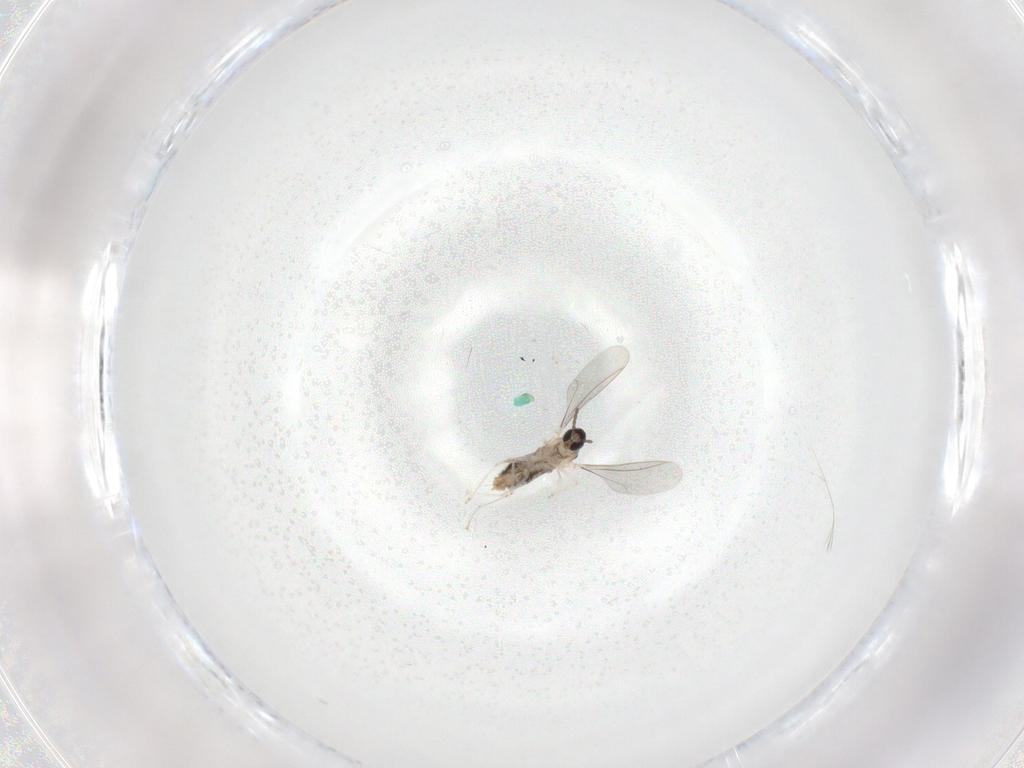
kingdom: Animalia
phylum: Arthropoda
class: Insecta
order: Diptera
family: Cecidomyiidae
